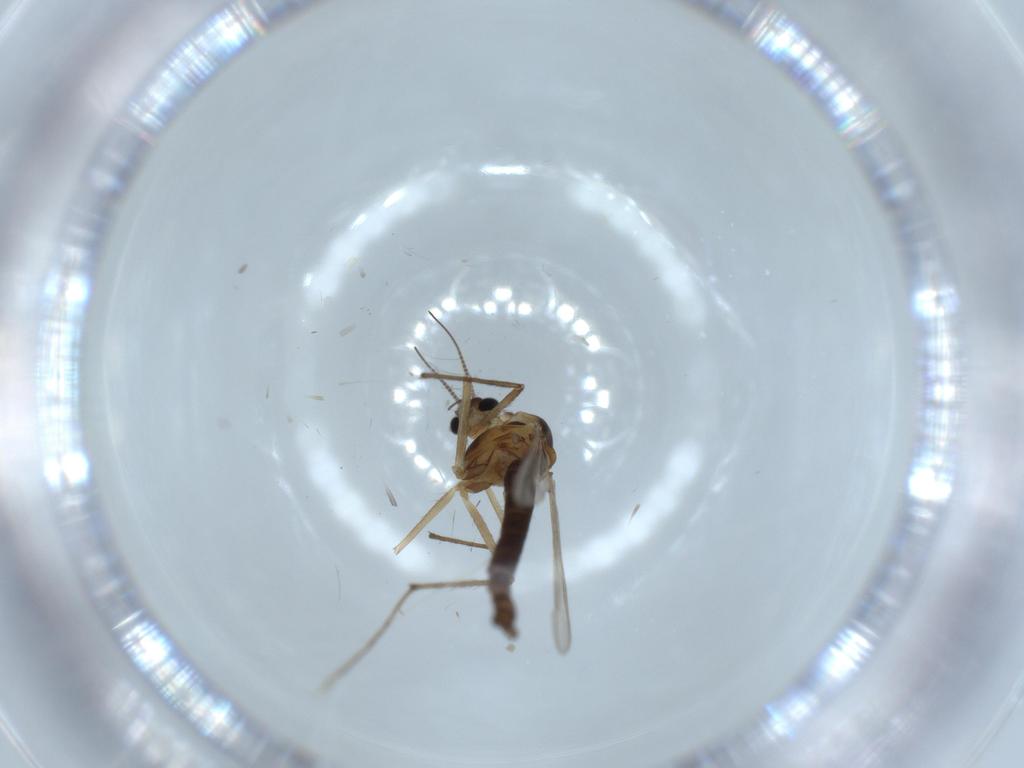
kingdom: Animalia
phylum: Arthropoda
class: Insecta
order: Diptera
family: Chironomidae
